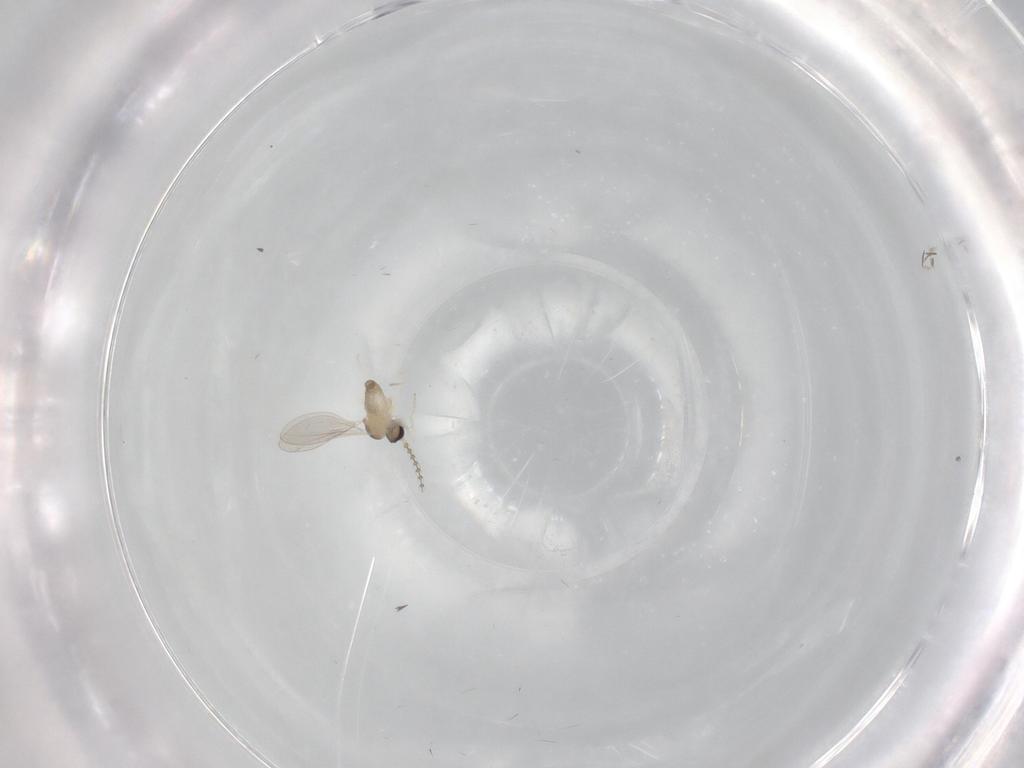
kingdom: Animalia
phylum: Arthropoda
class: Insecta
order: Diptera
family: Cecidomyiidae
